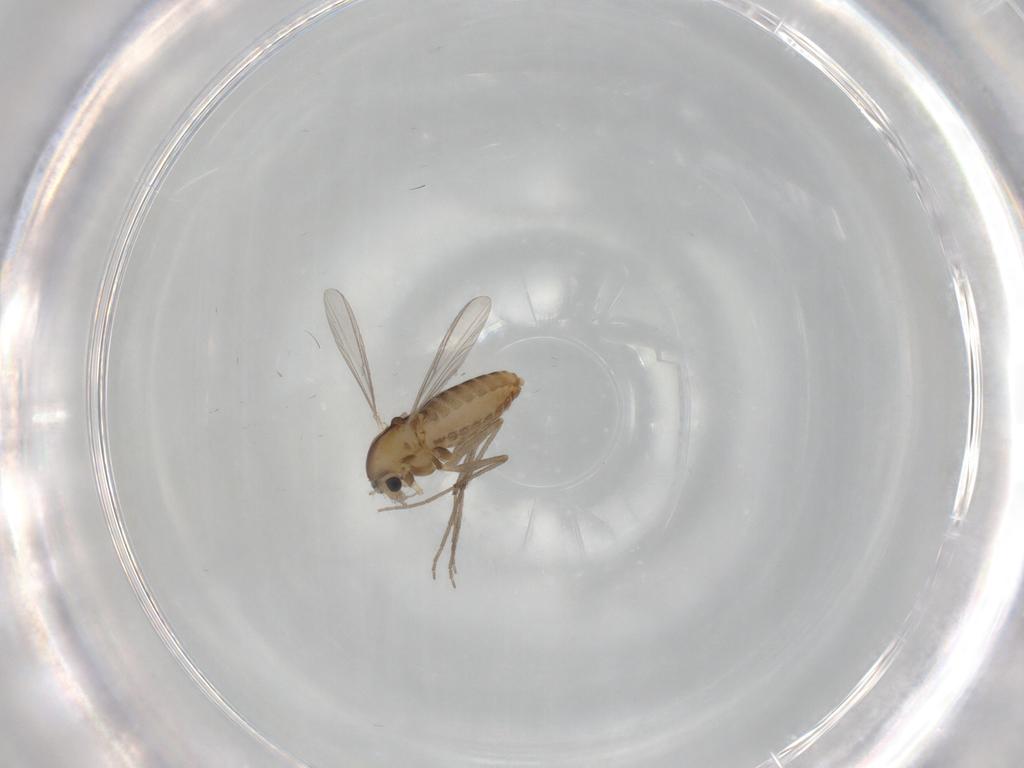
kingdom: Animalia
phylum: Arthropoda
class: Insecta
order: Diptera
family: Chironomidae
